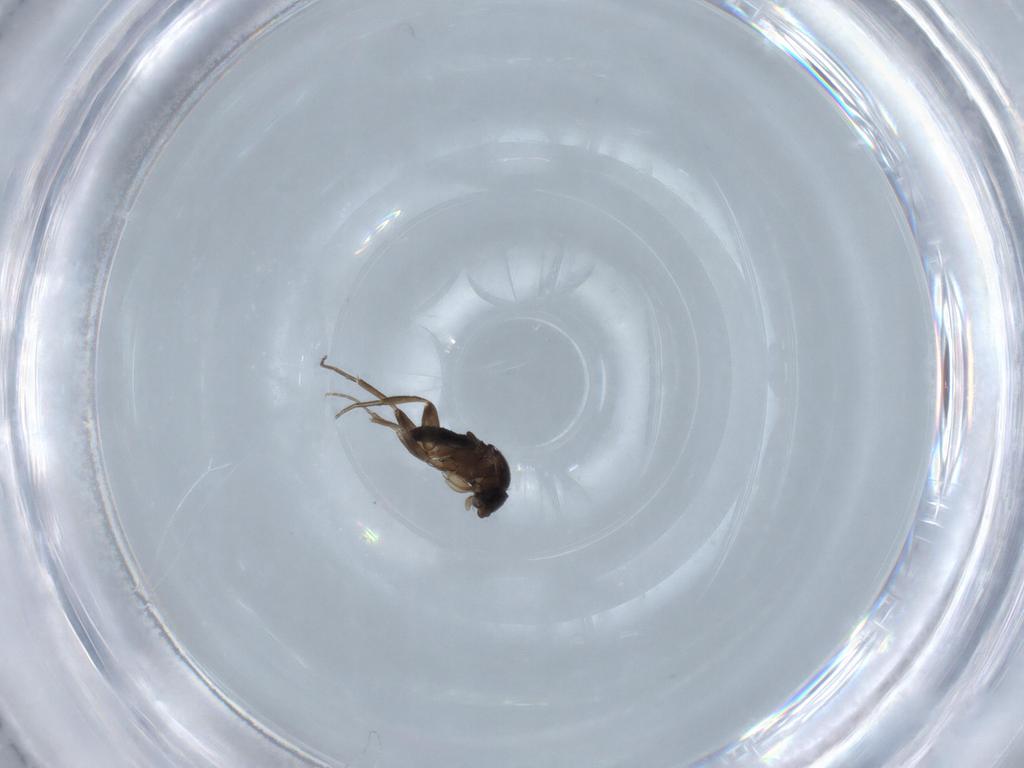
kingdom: Animalia
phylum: Arthropoda
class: Insecta
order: Diptera
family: Phoridae
